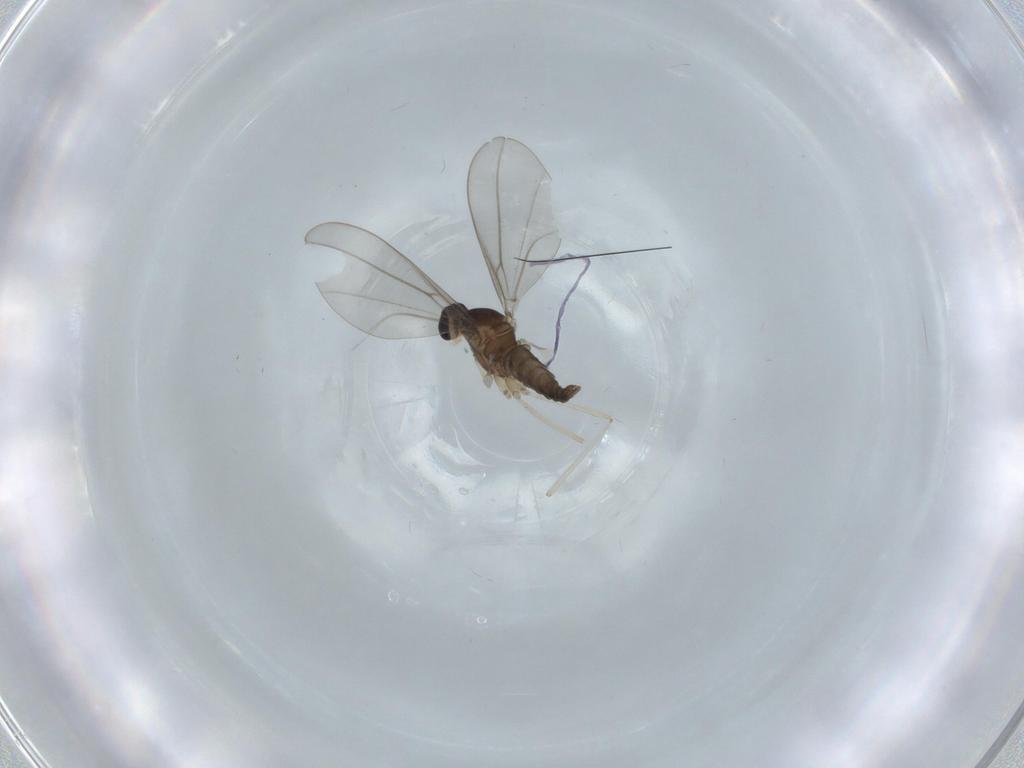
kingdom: Animalia
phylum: Arthropoda
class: Insecta
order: Diptera
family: Cecidomyiidae
